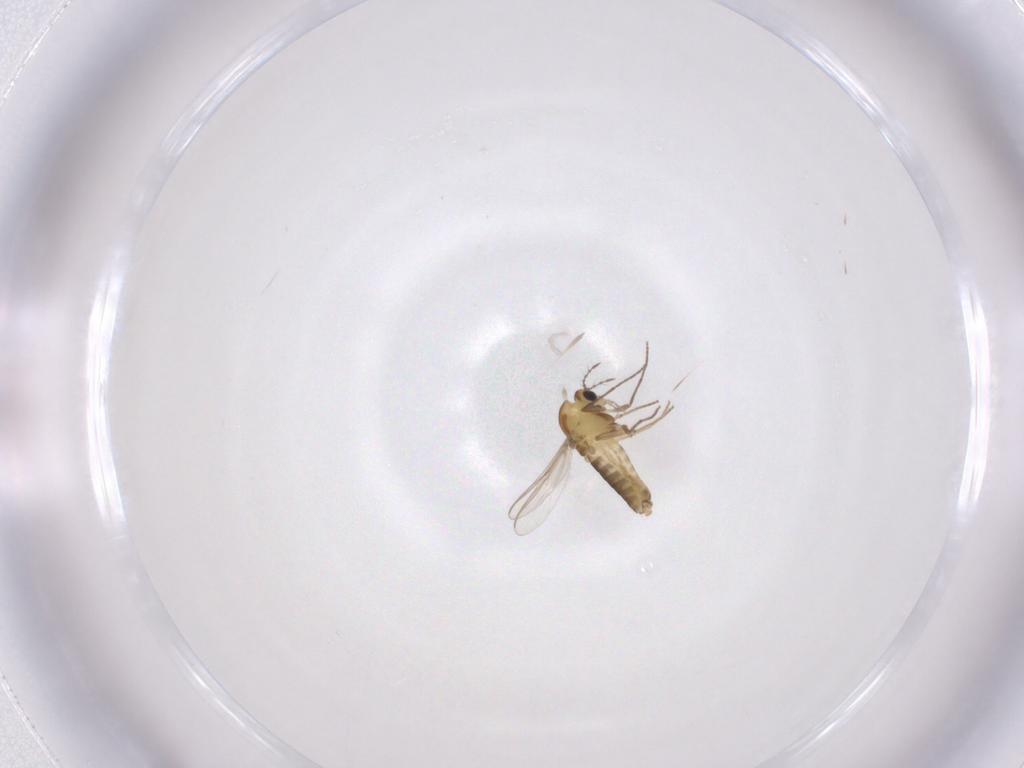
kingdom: Animalia
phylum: Arthropoda
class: Insecta
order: Diptera
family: Chironomidae
